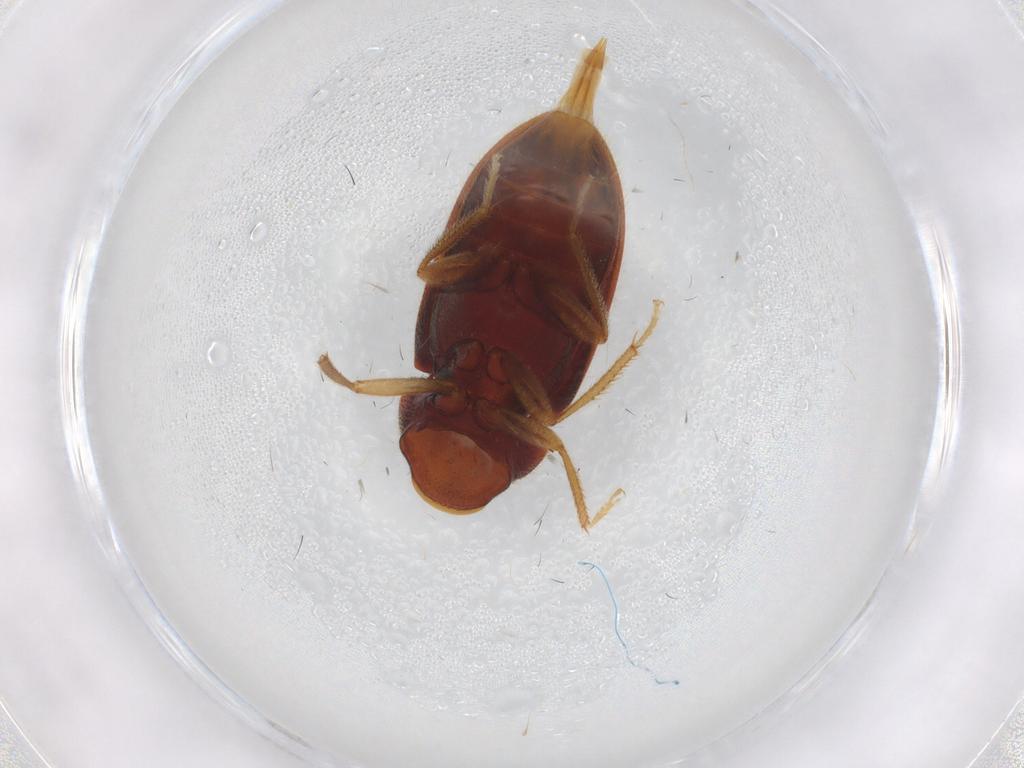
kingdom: Animalia
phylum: Arthropoda
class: Insecta
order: Coleoptera
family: Ptilodactylidae
